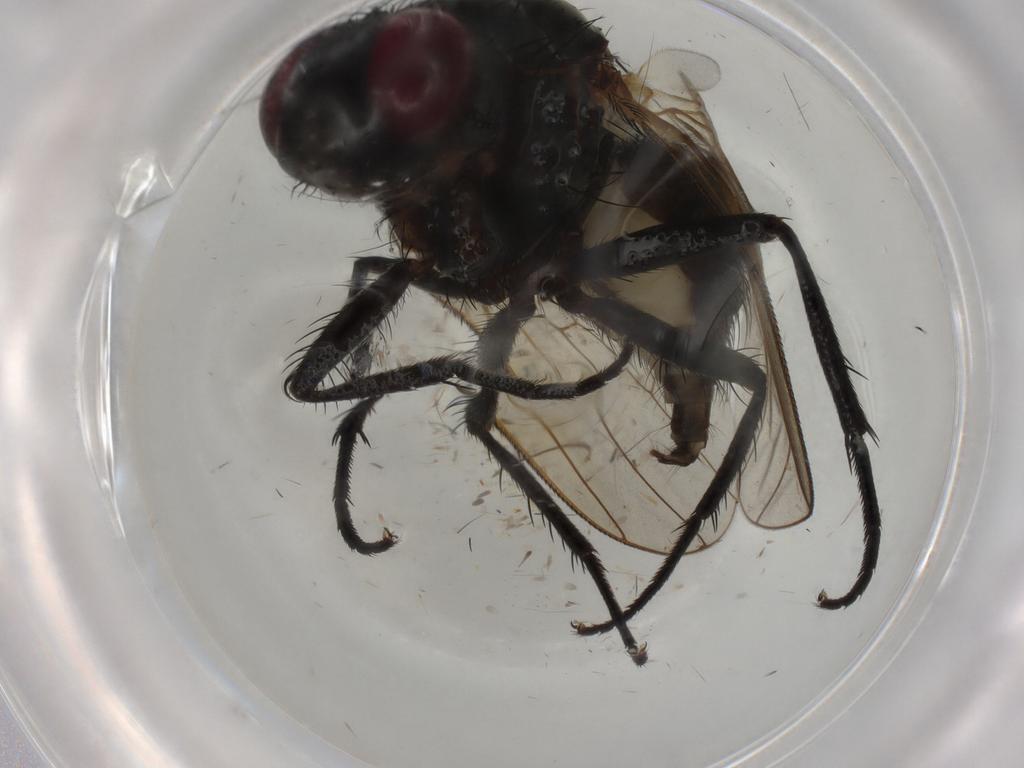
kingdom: Animalia
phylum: Arthropoda
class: Insecta
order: Diptera
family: Anthomyiidae
